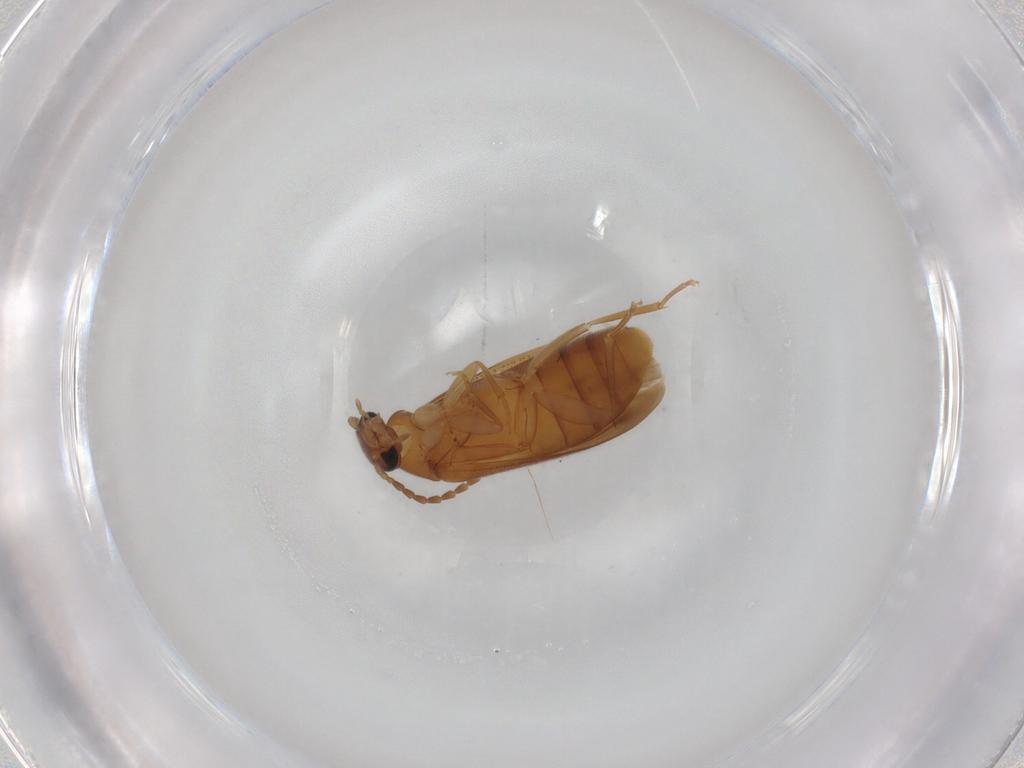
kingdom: Animalia
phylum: Arthropoda
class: Insecta
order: Coleoptera
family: Scraptiidae
